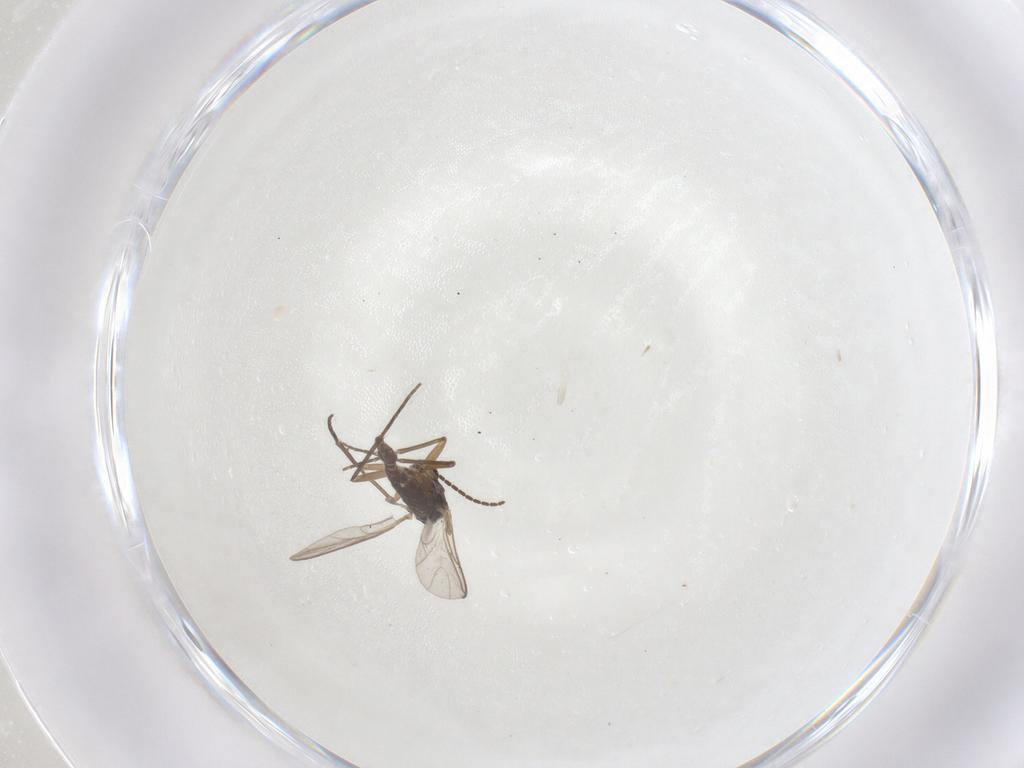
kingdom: Animalia
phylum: Arthropoda
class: Insecta
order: Diptera
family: Sciaridae
